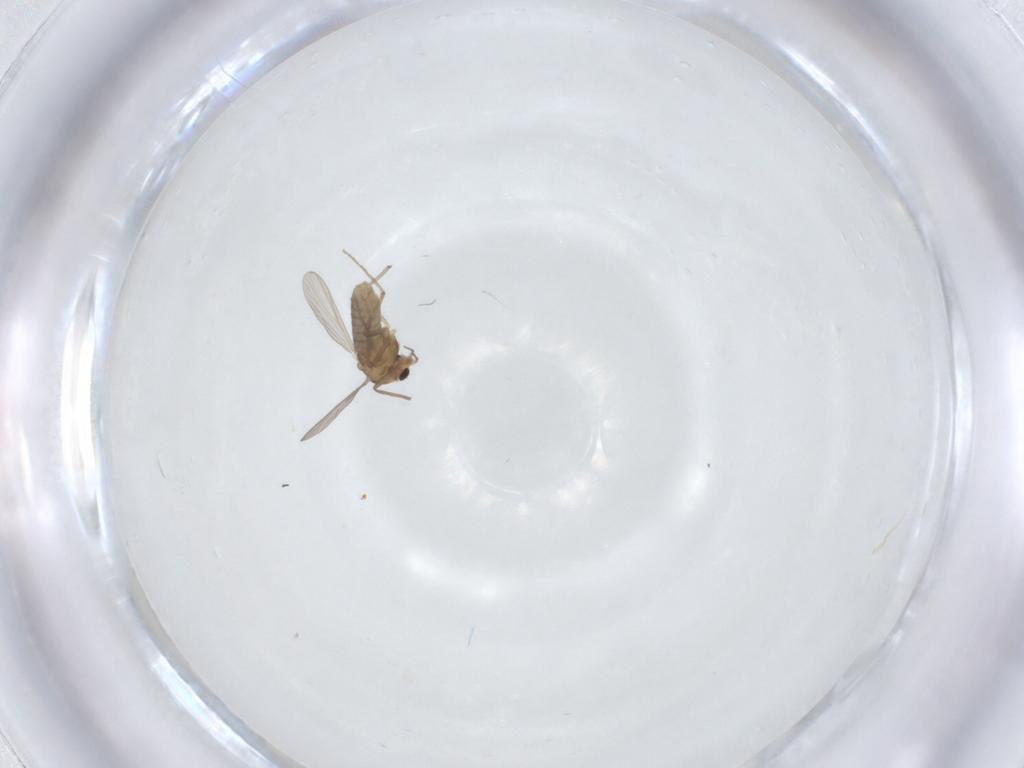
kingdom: Animalia
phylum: Arthropoda
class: Insecta
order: Diptera
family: Chironomidae
